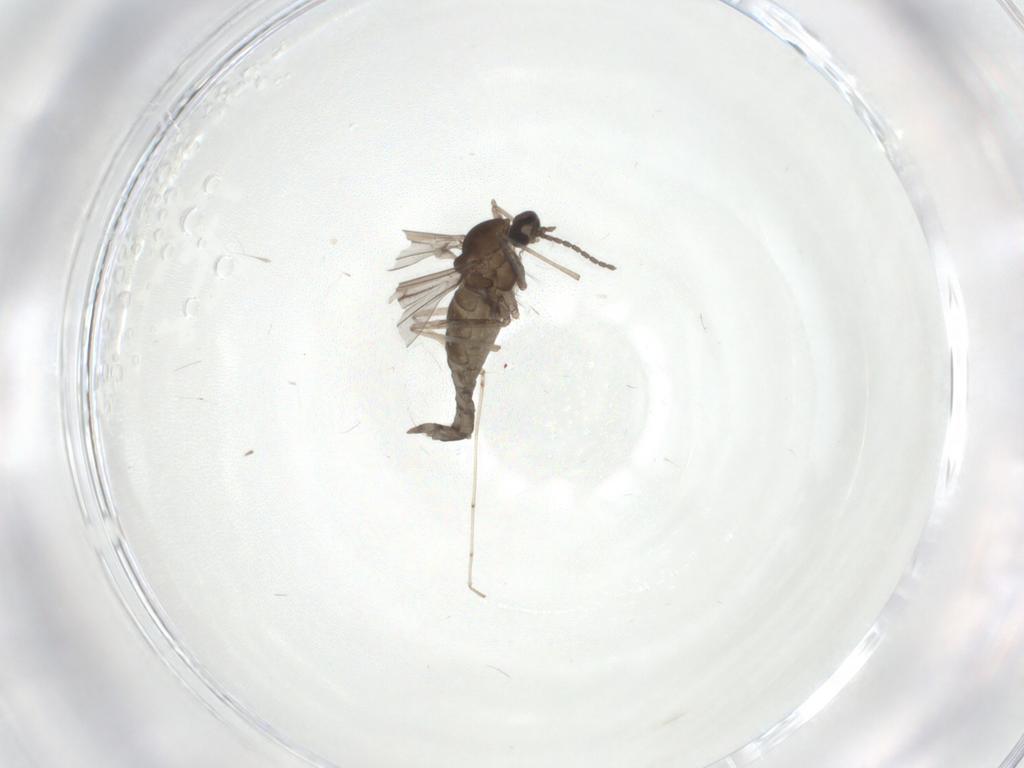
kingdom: Animalia
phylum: Arthropoda
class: Insecta
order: Diptera
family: Cecidomyiidae
